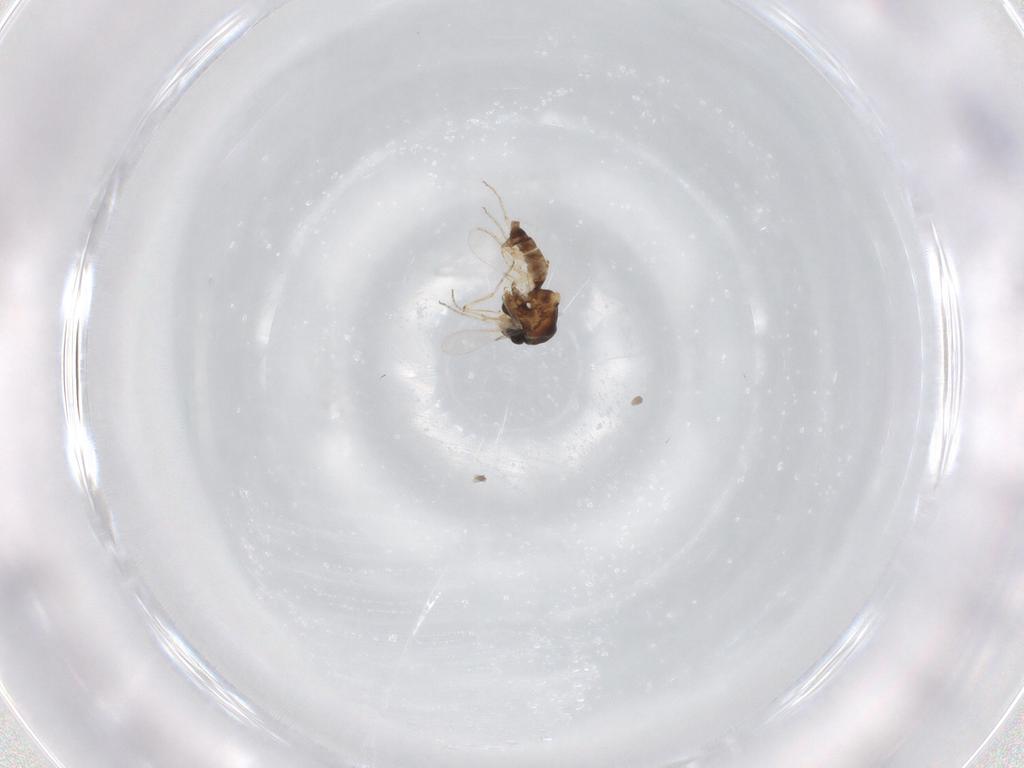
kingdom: Animalia
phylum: Arthropoda
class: Insecta
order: Diptera
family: Ceratopogonidae
